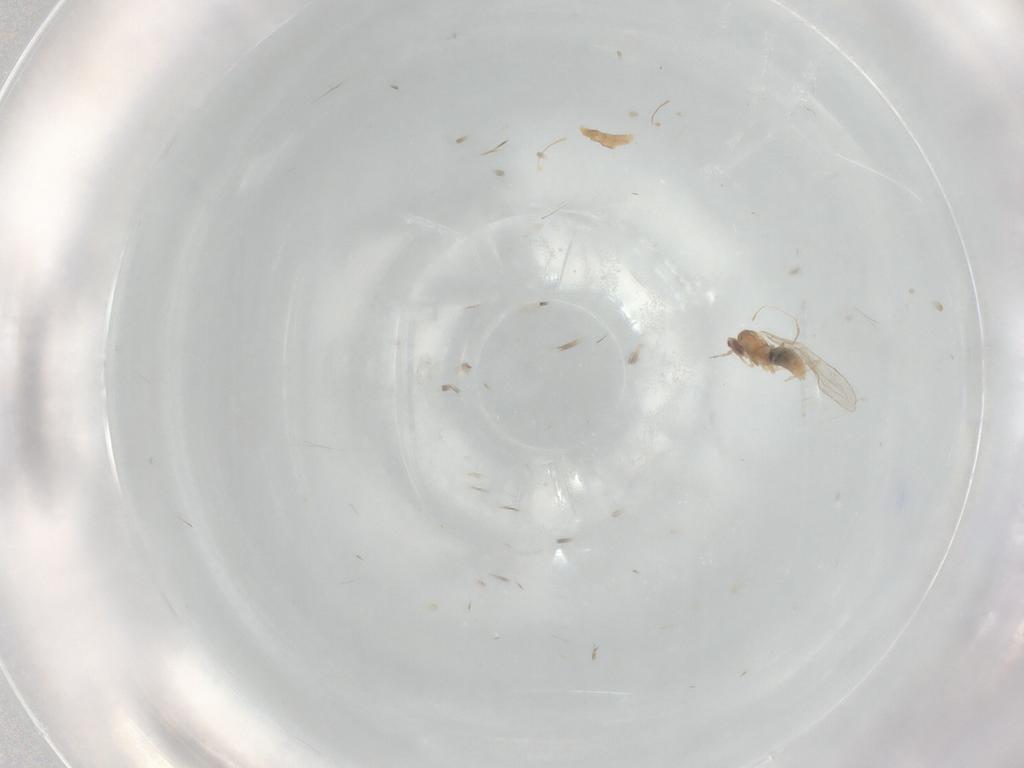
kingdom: Animalia
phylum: Arthropoda
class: Insecta
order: Diptera
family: Cecidomyiidae
